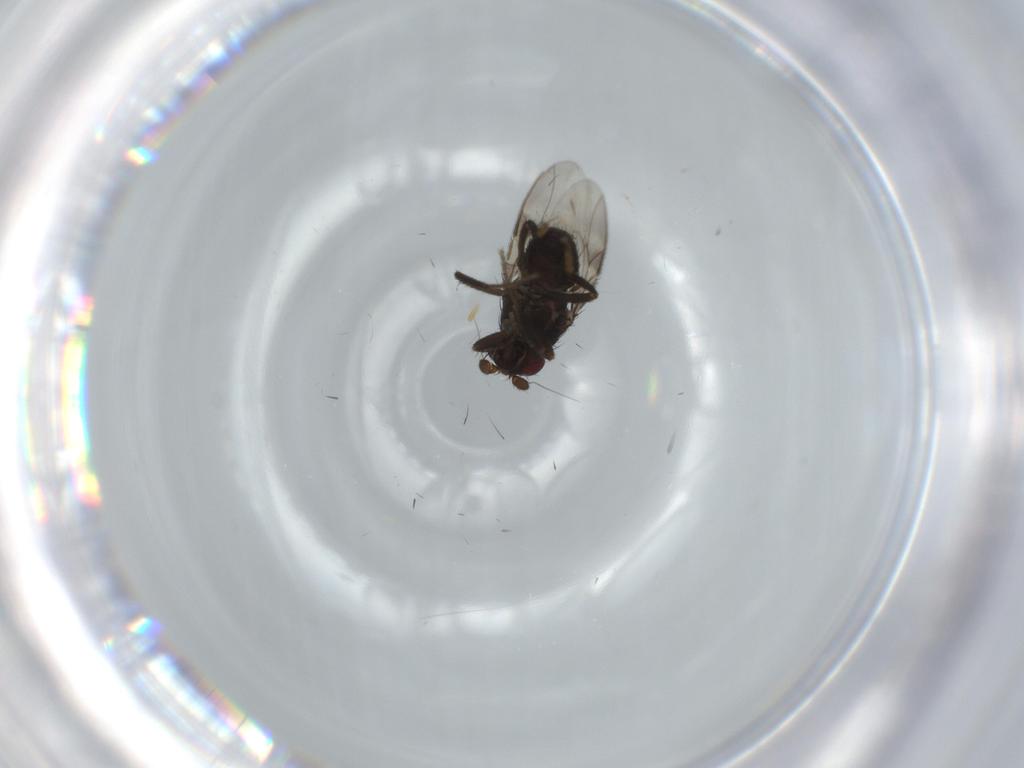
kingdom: Animalia
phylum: Arthropoda
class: Insecta
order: Diptera
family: Sphaeroceridae
